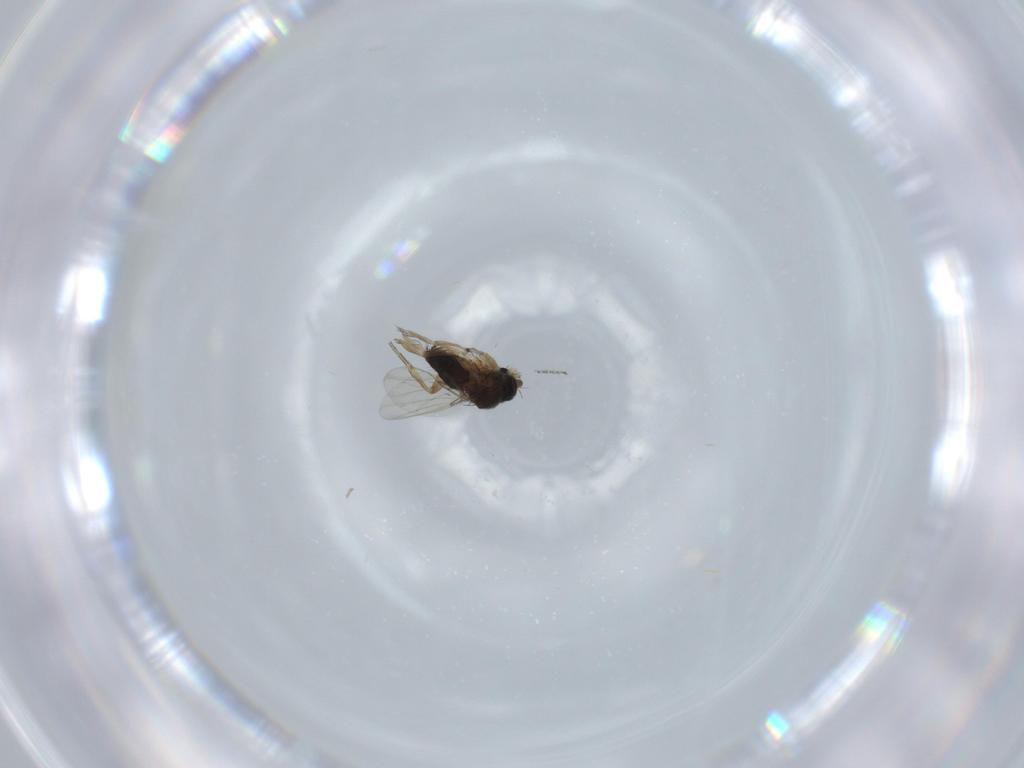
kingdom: Animalia
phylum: Arthropoda
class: Insecta
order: Diptera
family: Phoridae
